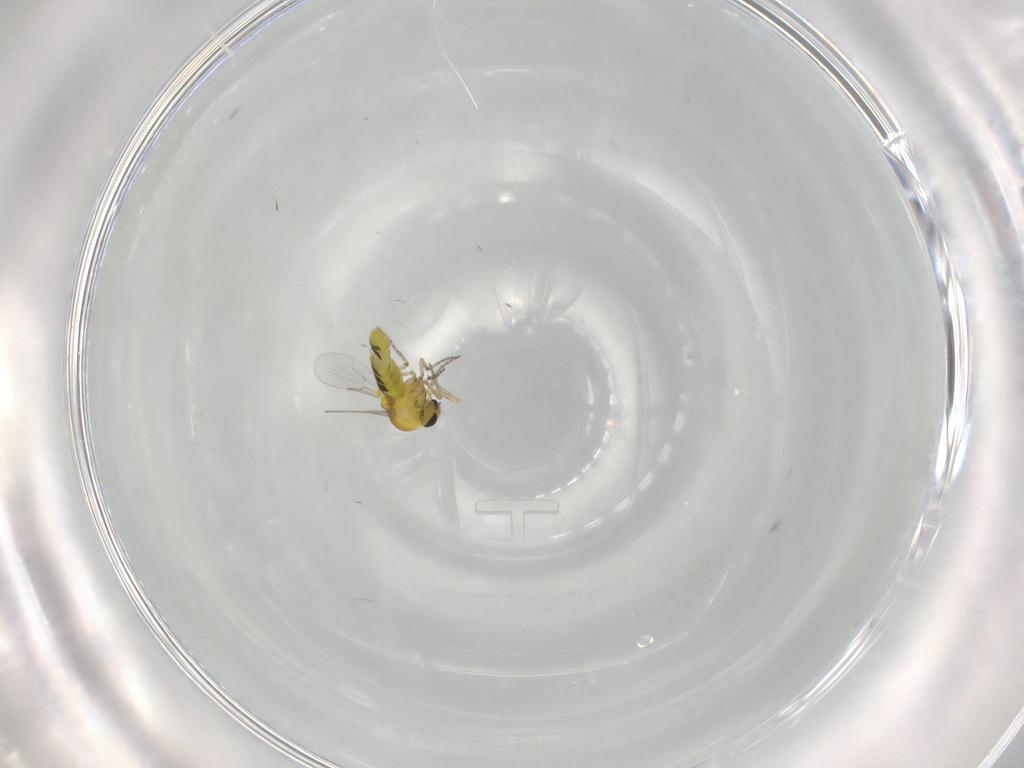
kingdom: Animalia
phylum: Arthropoda
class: Insecta
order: Diptera
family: Ceratopogonidae
